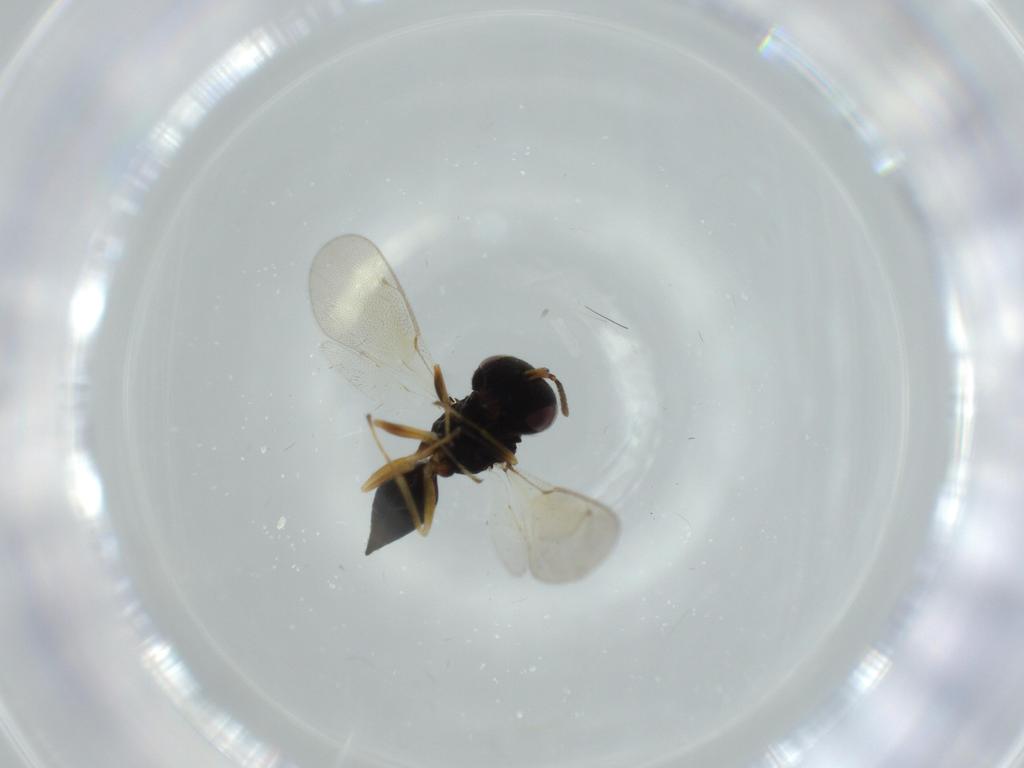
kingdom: Animalia
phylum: Arthropoda
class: Insecta
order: Hymenoptera
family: Pteromalidae
